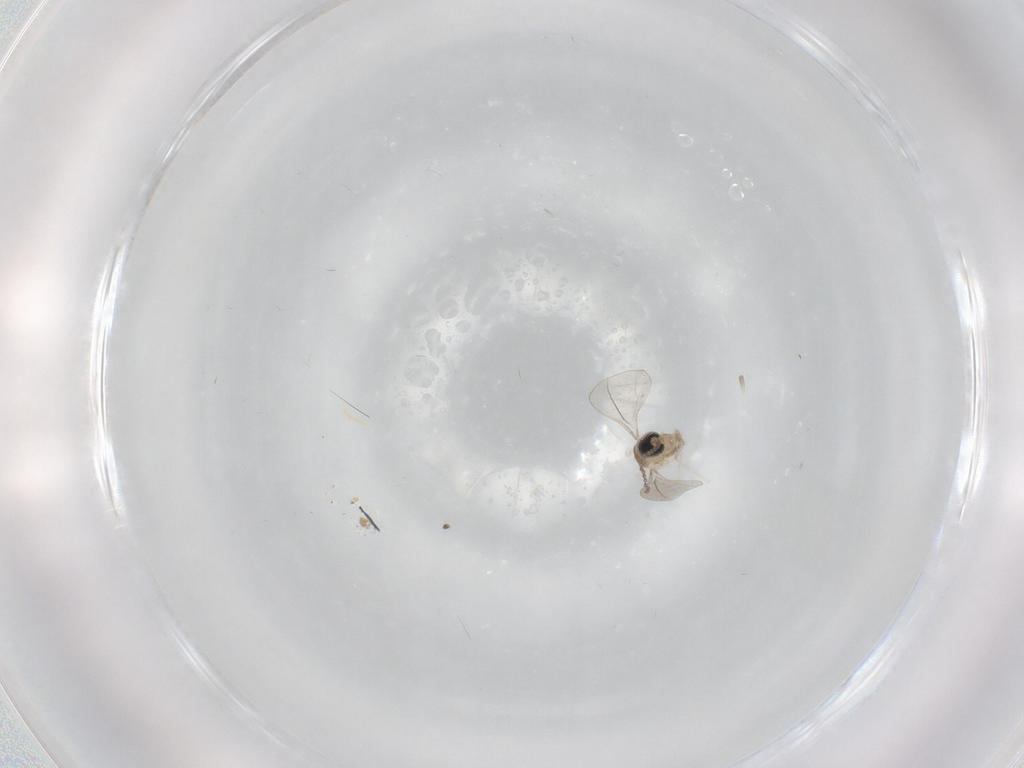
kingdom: Animalia
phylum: Arthropoda
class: Insecta
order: Diptera
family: Cecidomyiidae
